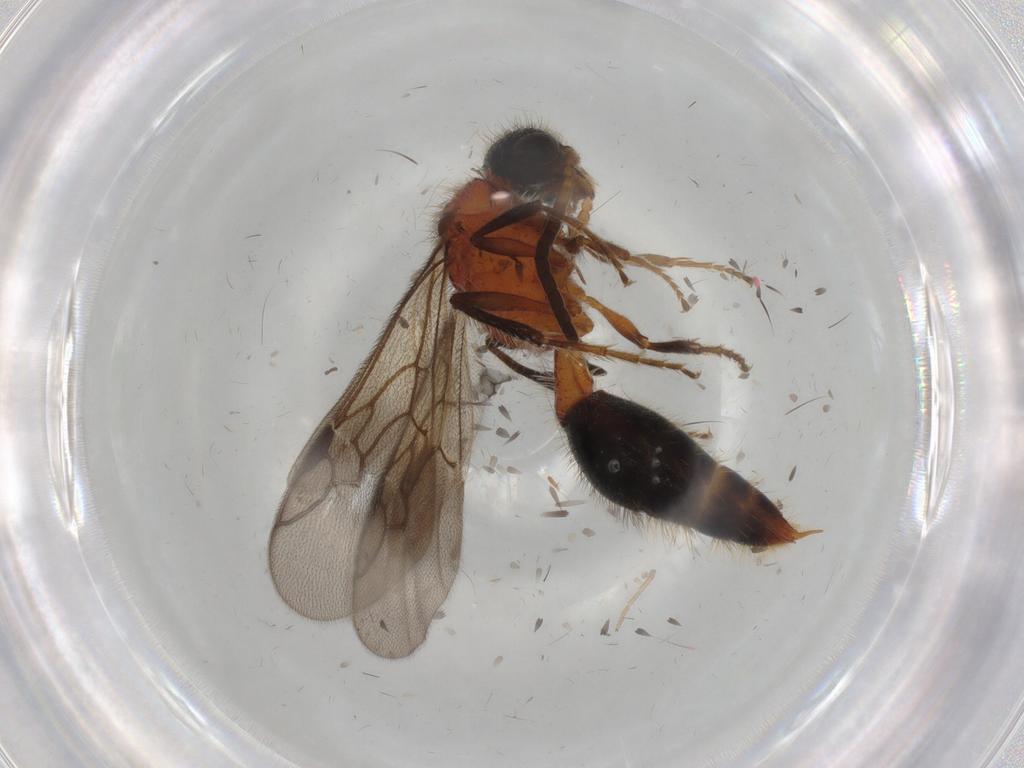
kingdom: Animalia
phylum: Arthropoda
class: Insecta
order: Hymenoptera
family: Mutillidae
